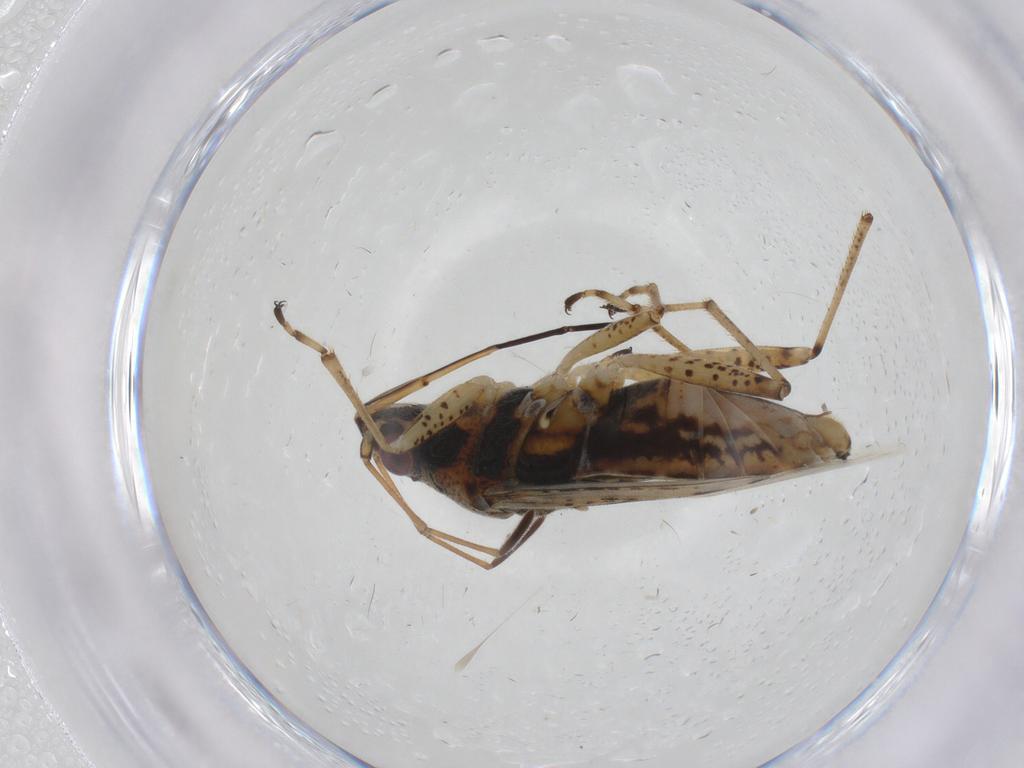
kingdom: Animalia
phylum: Arthropoda
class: Insecta
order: Hemiptera
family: Lygaeidae
